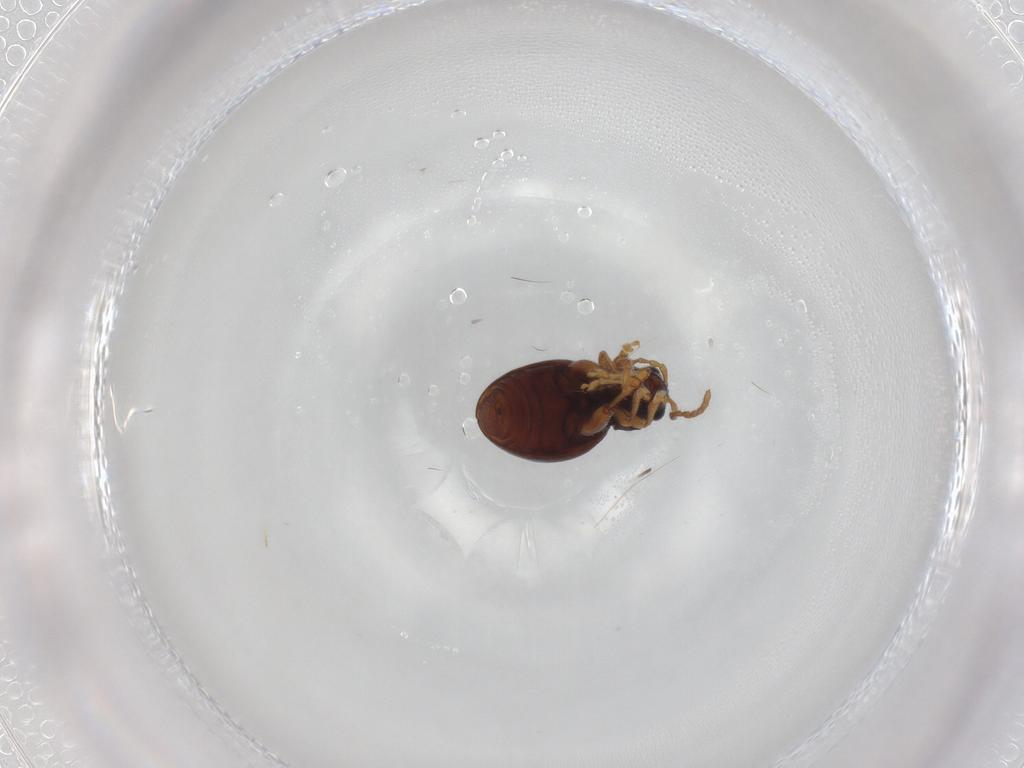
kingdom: Animalia
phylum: Arthropoda
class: Insecta
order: Coleoptera
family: Chrysomelidae
